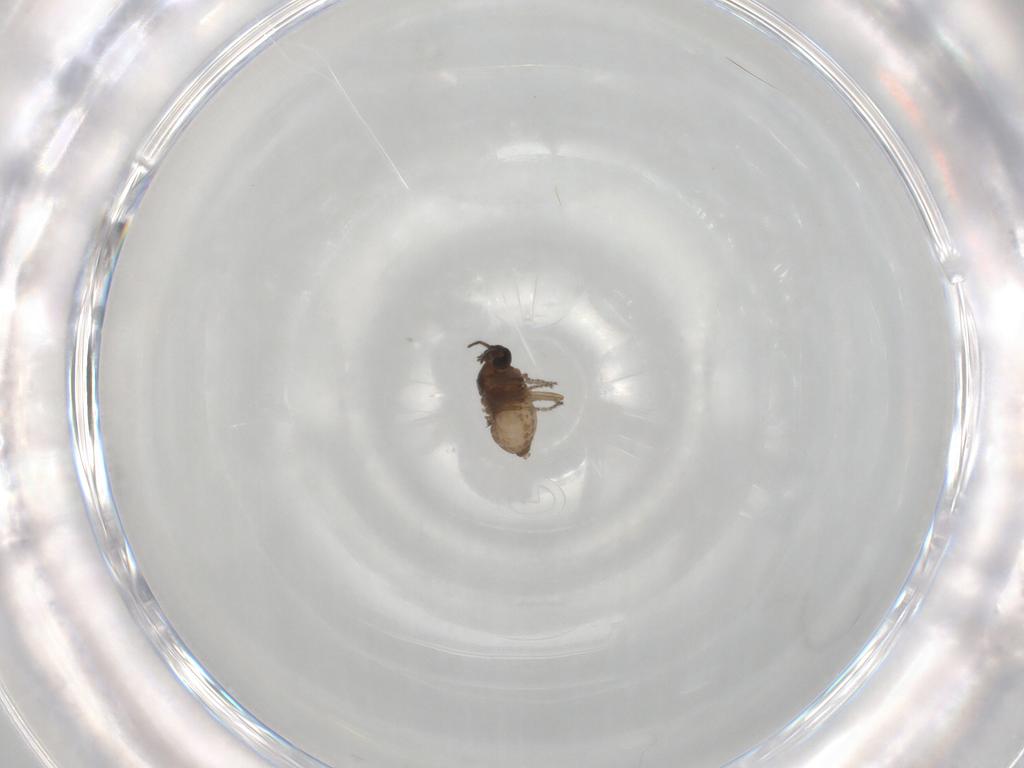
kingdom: Animalia
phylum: Arthropoda
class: Insecta
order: Diptera
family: Ceratopogonidae
